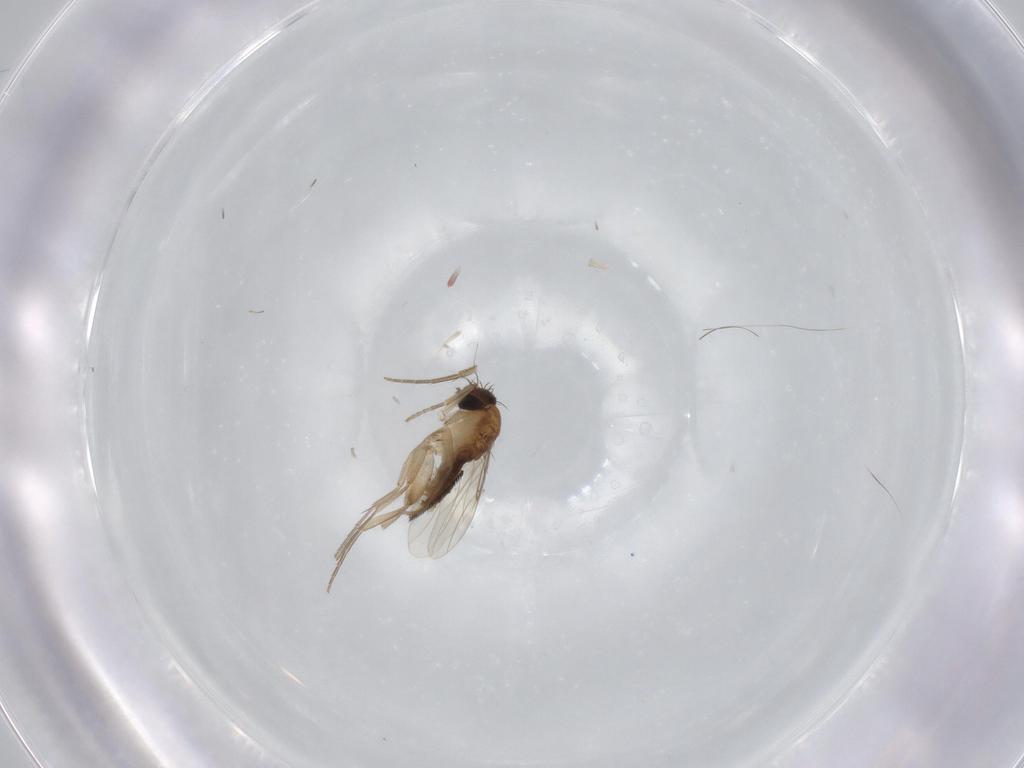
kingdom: Animalia
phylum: Arthropoda
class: Insecta
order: Diptera
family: Phoridae
